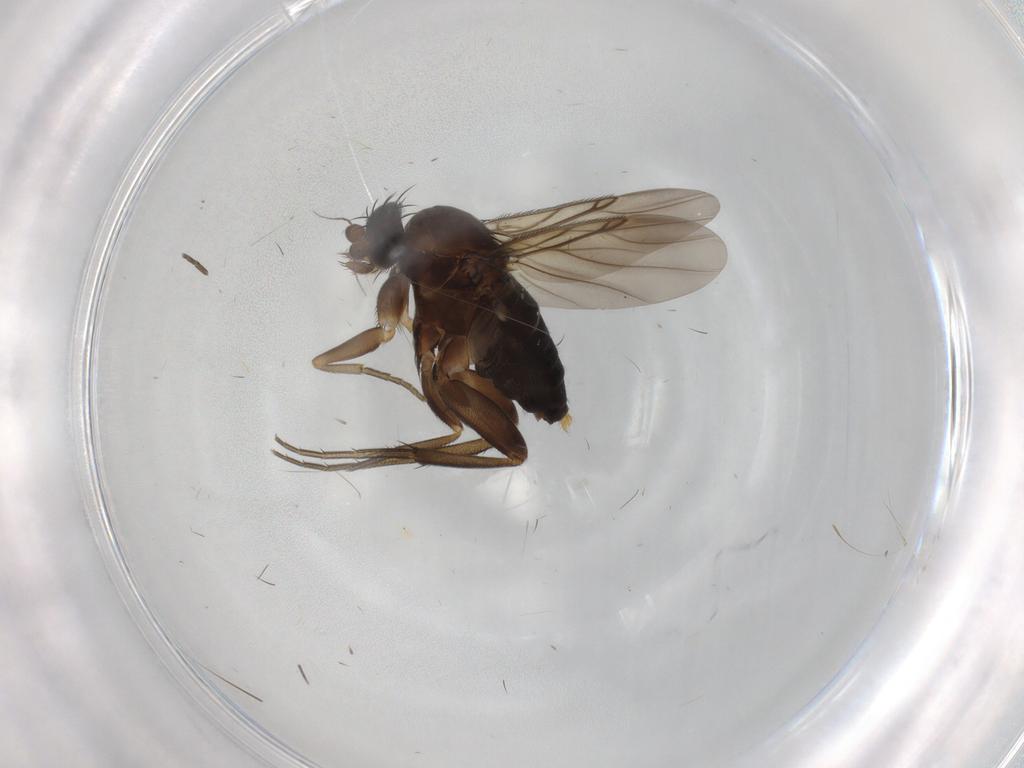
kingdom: Animalia
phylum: Arthropoda
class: Insecta
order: Diptera
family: Phoridae
